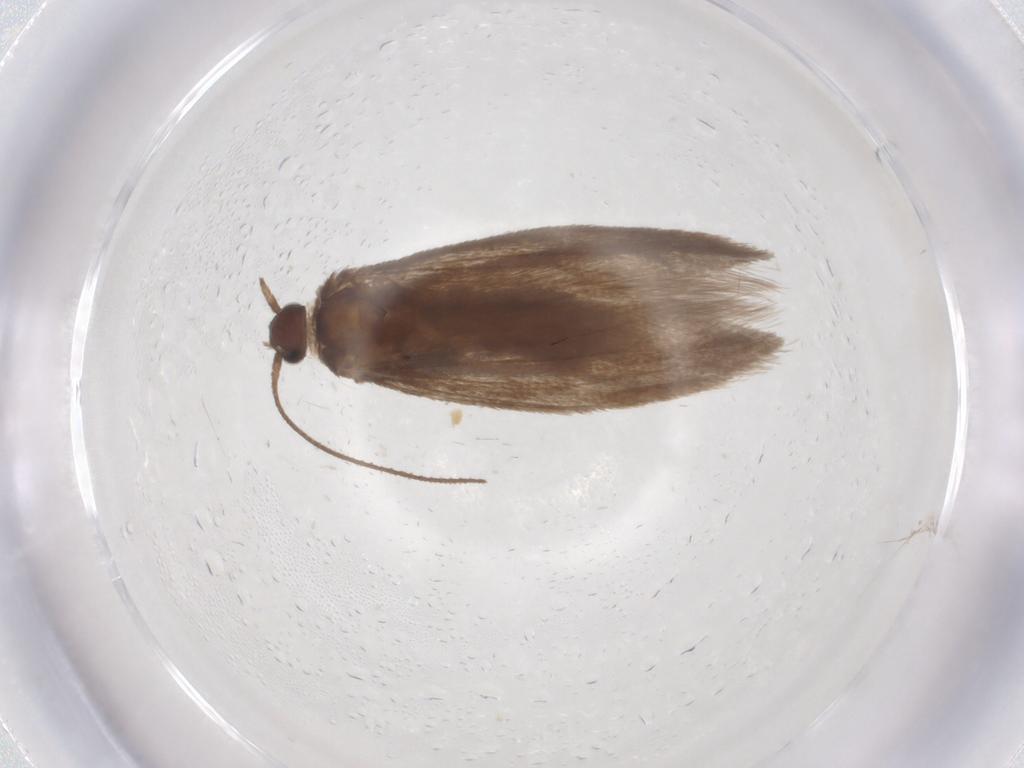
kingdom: Animalia
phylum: Arthropoda
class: Insecta
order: Lepidoptera
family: Limacodidae
